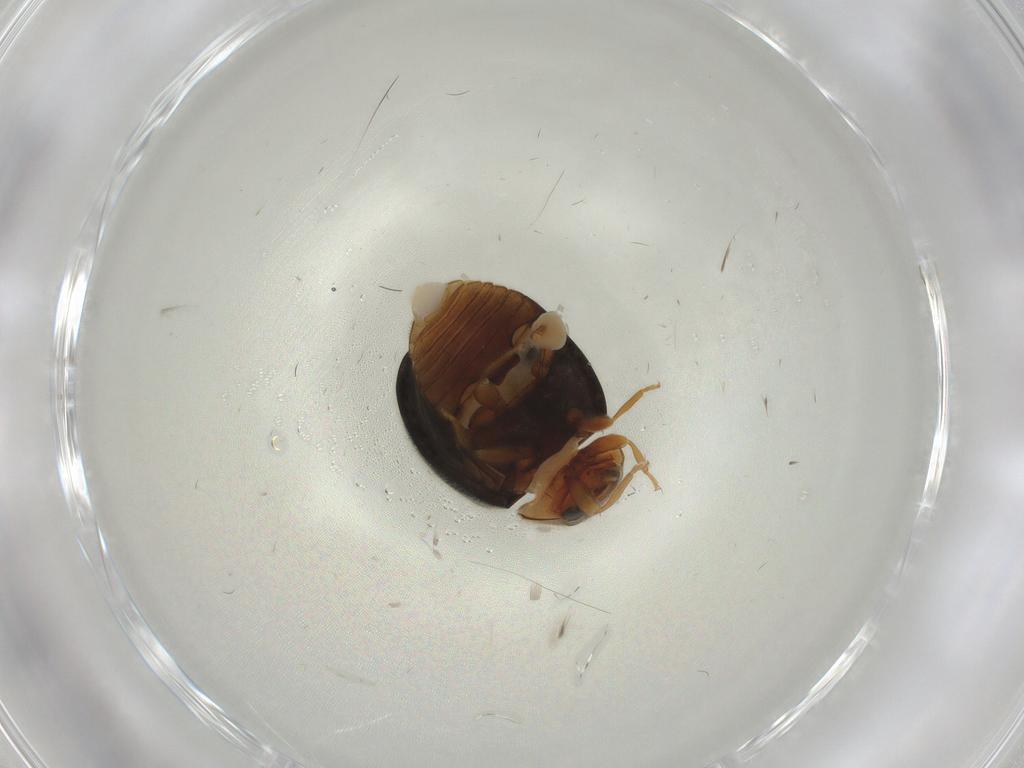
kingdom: Animalia
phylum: Arthropoda
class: Insecta
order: Coleoptera
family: Coccinellidae
